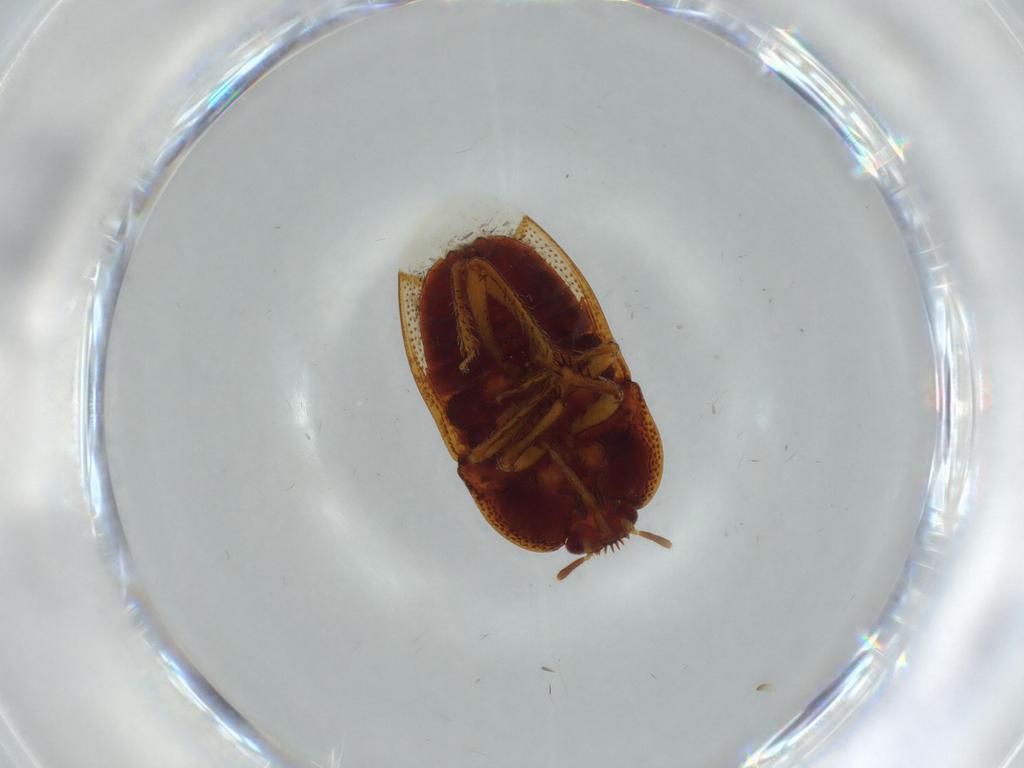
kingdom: Animalia
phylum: Arthropoda
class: Insecta
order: Hemiptera
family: Cydnidae
